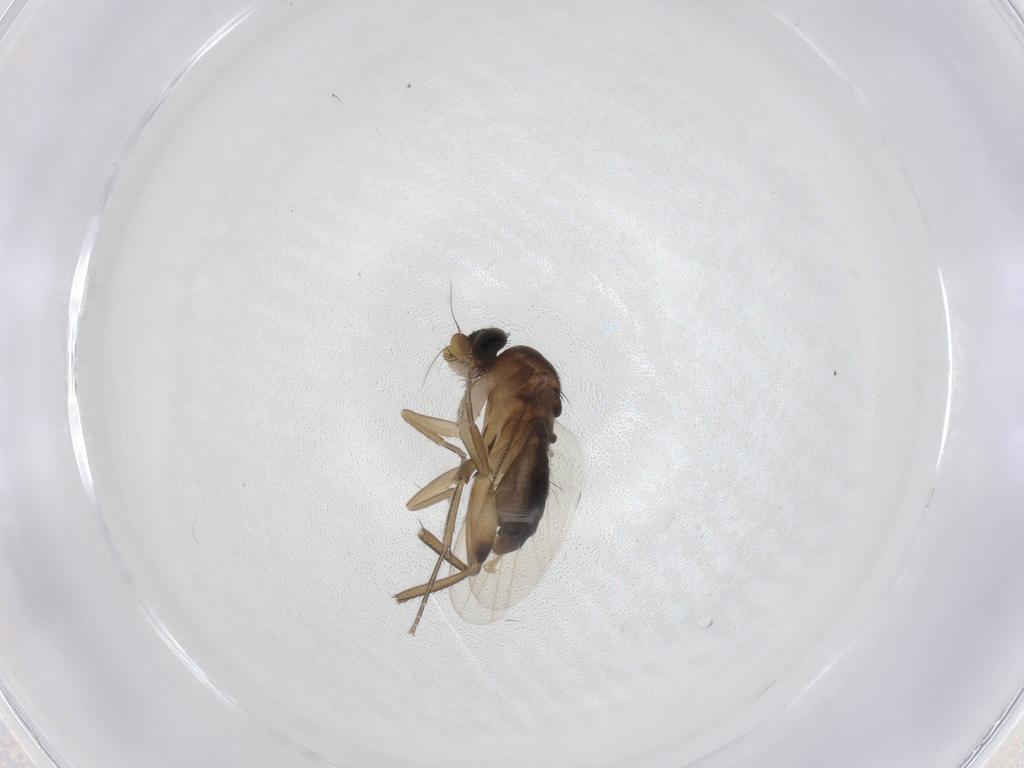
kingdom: Animalia
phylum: Arthropoda
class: Insecta
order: Diptera
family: Phoridae
